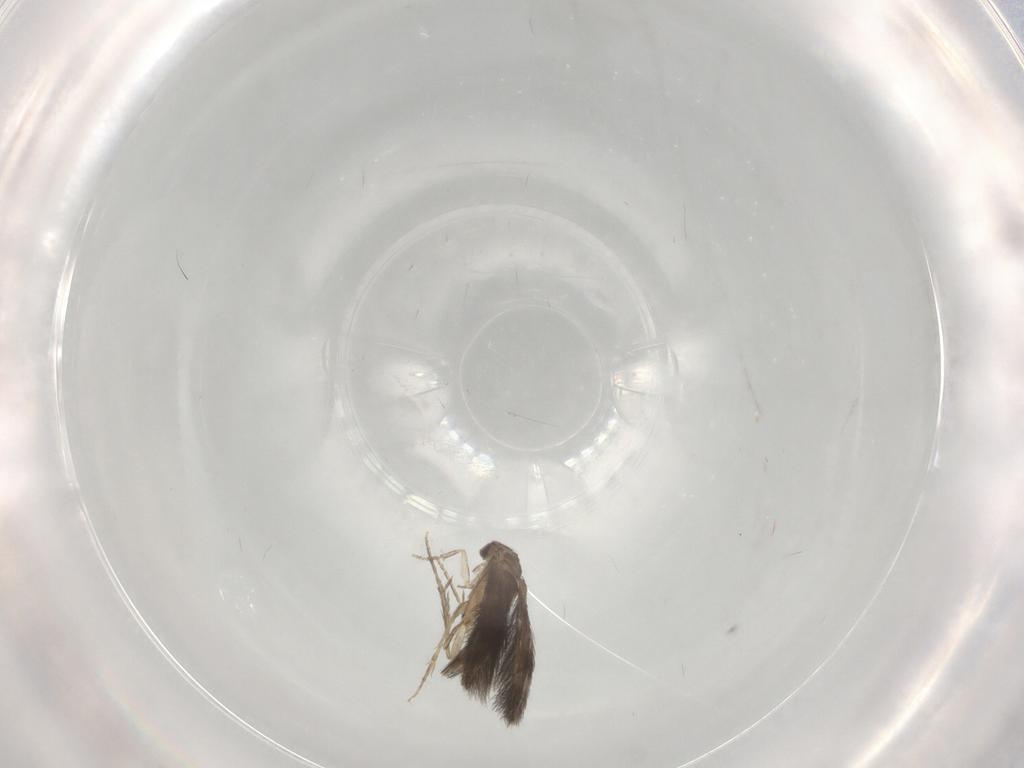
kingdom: Animalia
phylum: Arthropoda
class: Insecta
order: Trichoptera
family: Hydroptilidae
